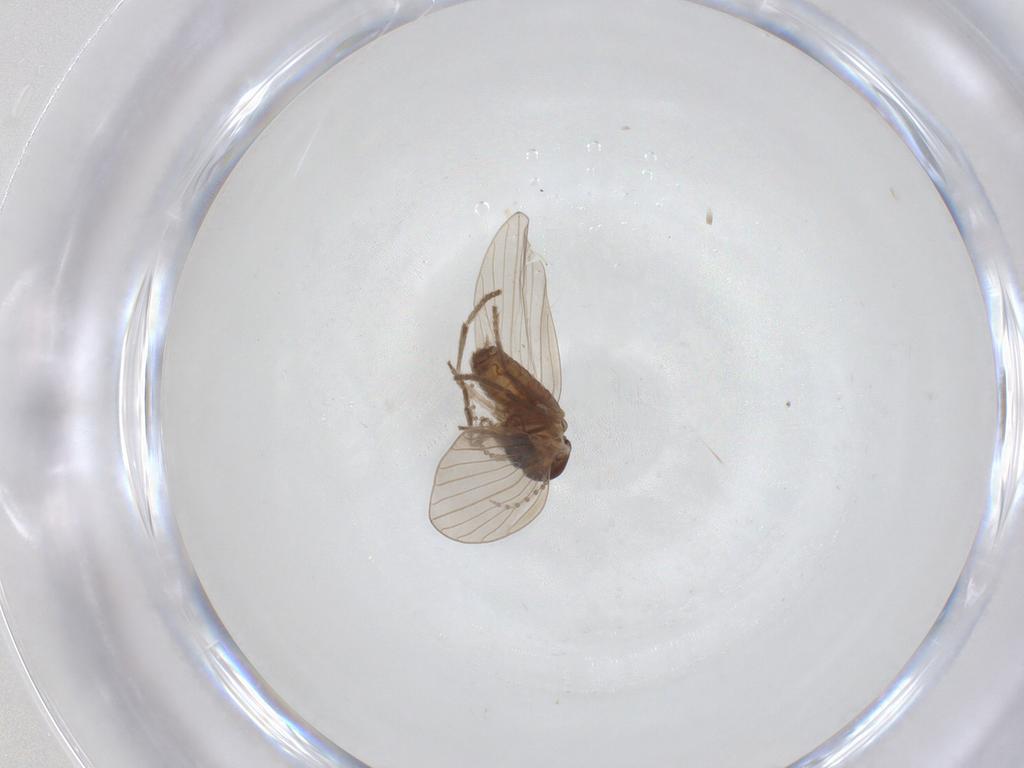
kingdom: Animalia
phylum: Arthropoda
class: Insecta
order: Diptera
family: Psychodidae
